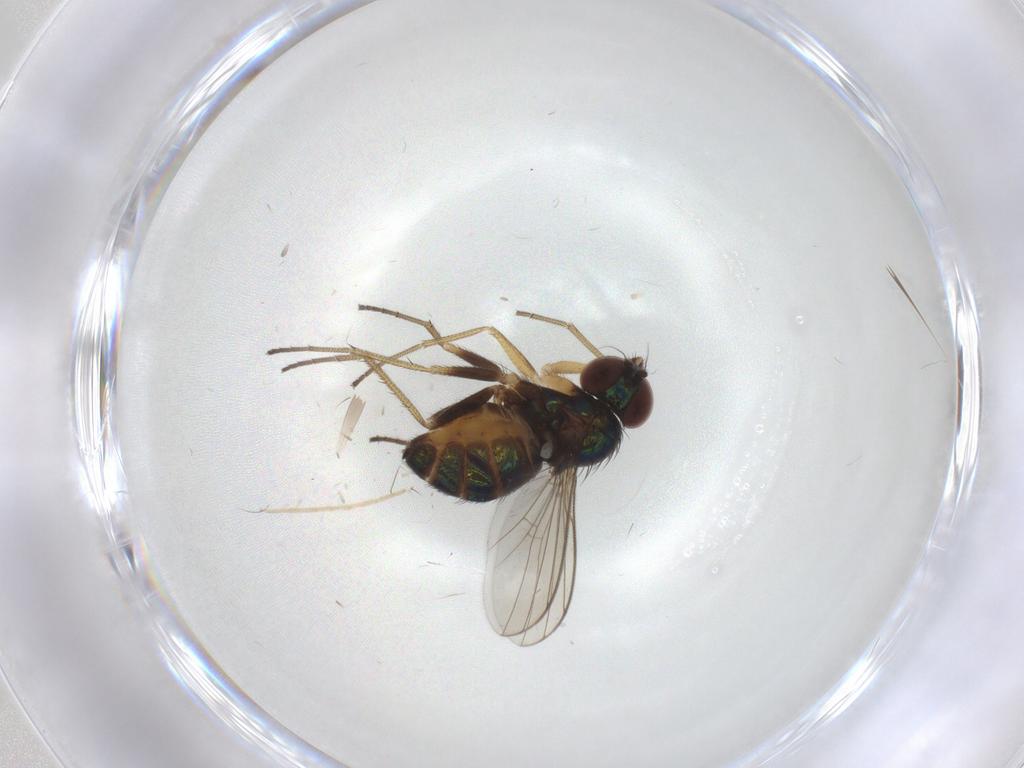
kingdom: Animalia
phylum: Arthropoda
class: Insecta
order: Diptera
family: Dolichopodidae
